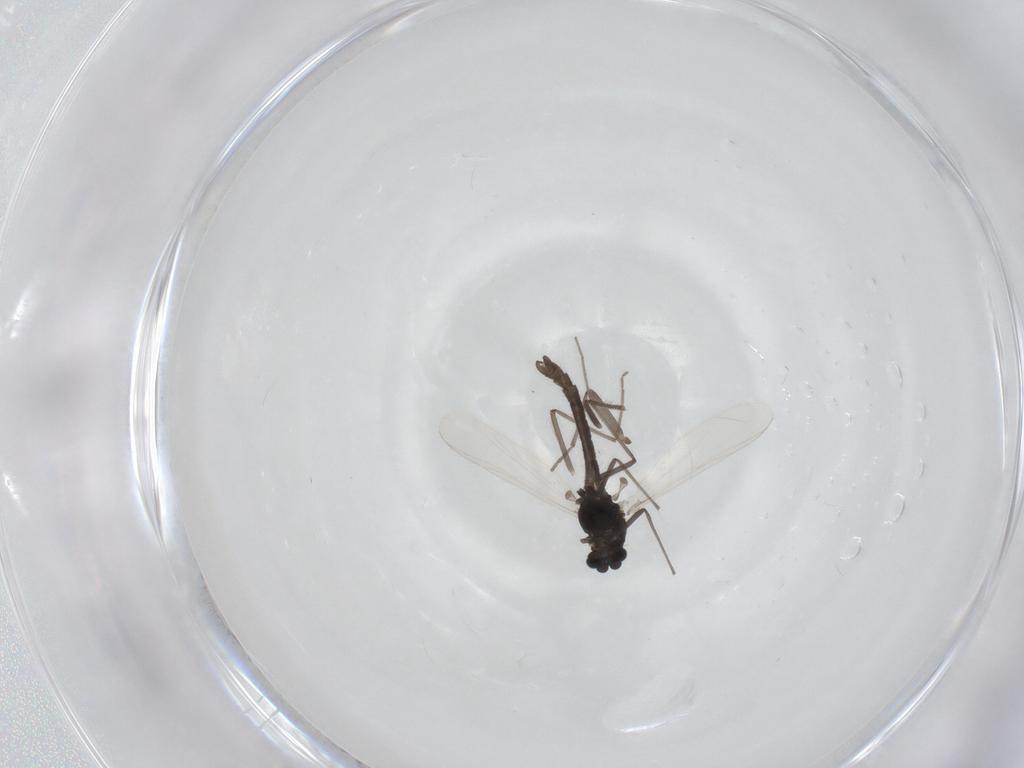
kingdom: Animalia
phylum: Arthropoda
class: Insecta
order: Diptera
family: Chironomidae
